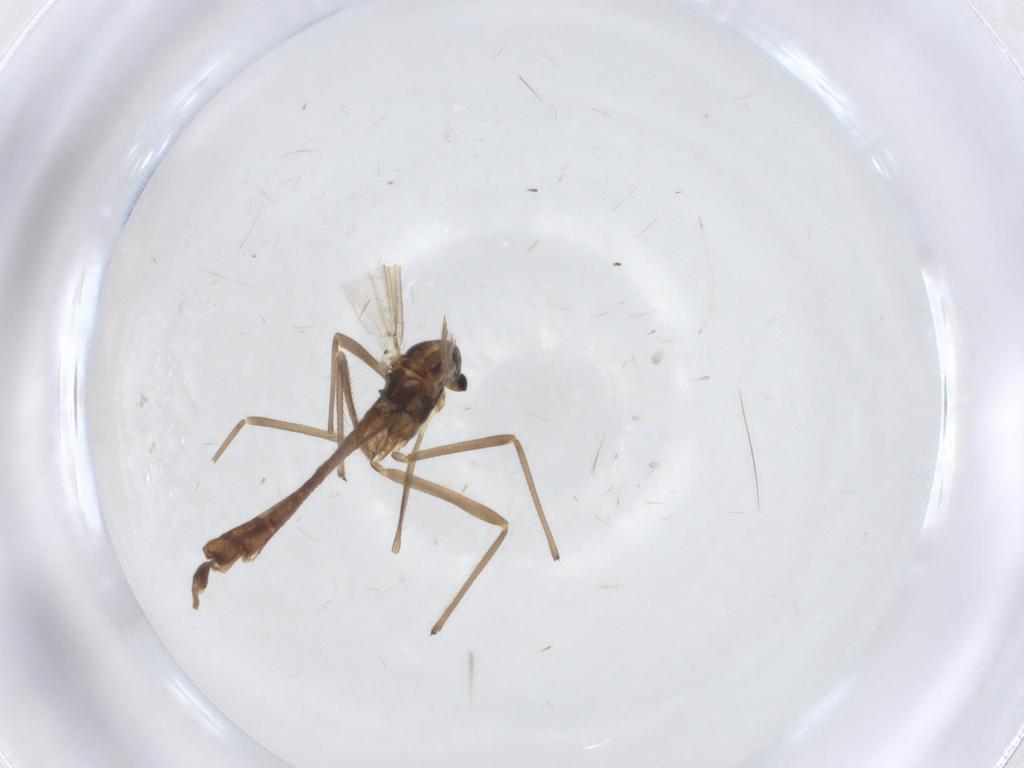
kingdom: Animalia
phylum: Arthropoda
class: Insecta
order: Diptera
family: Chironomidae
